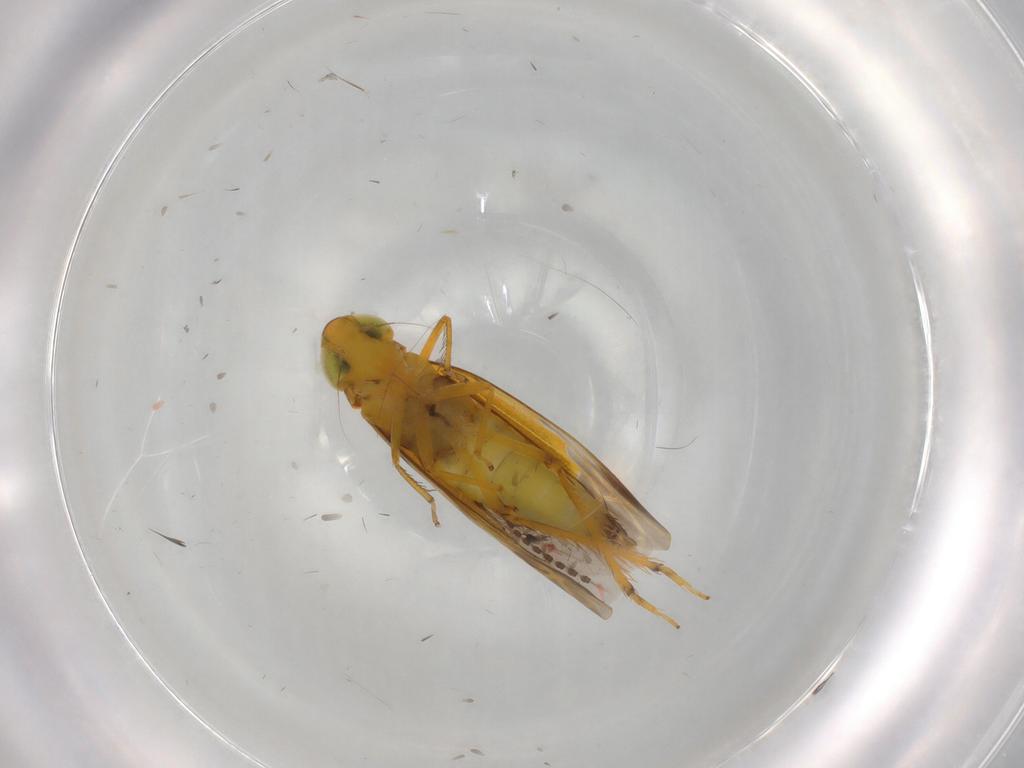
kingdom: Animalia
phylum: Arthropoda
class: Insecta
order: Hemiptera
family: Cicadellidae
